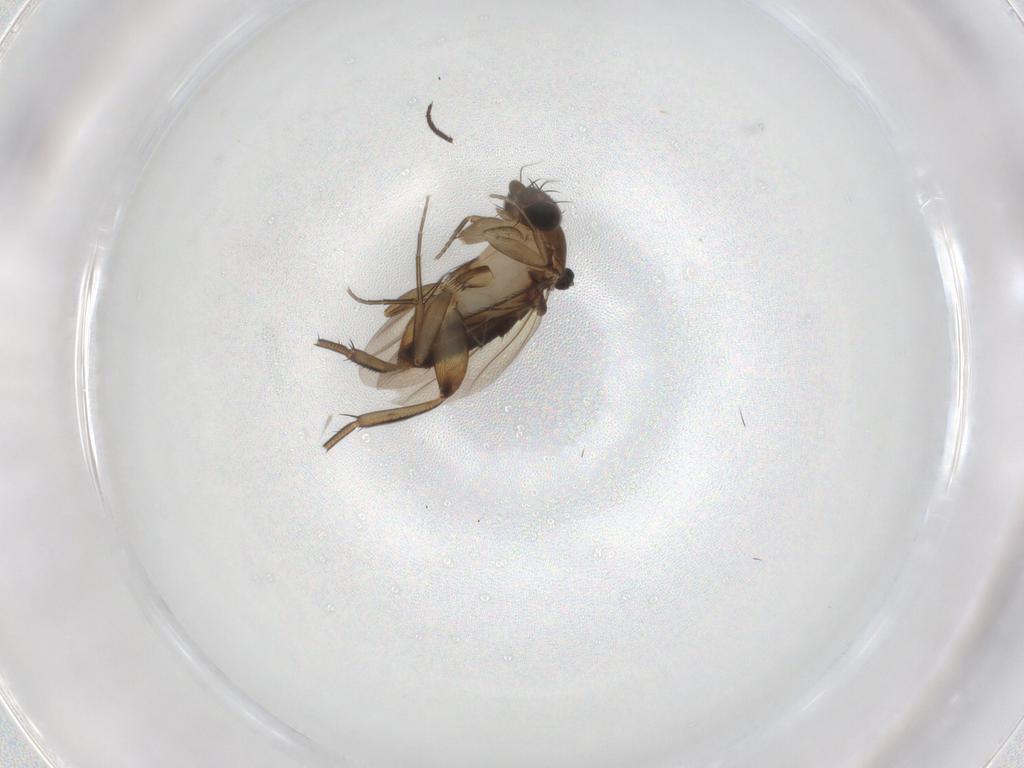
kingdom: Animalia
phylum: Arthropoda
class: Insecta
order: Diptera
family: Phoridae
